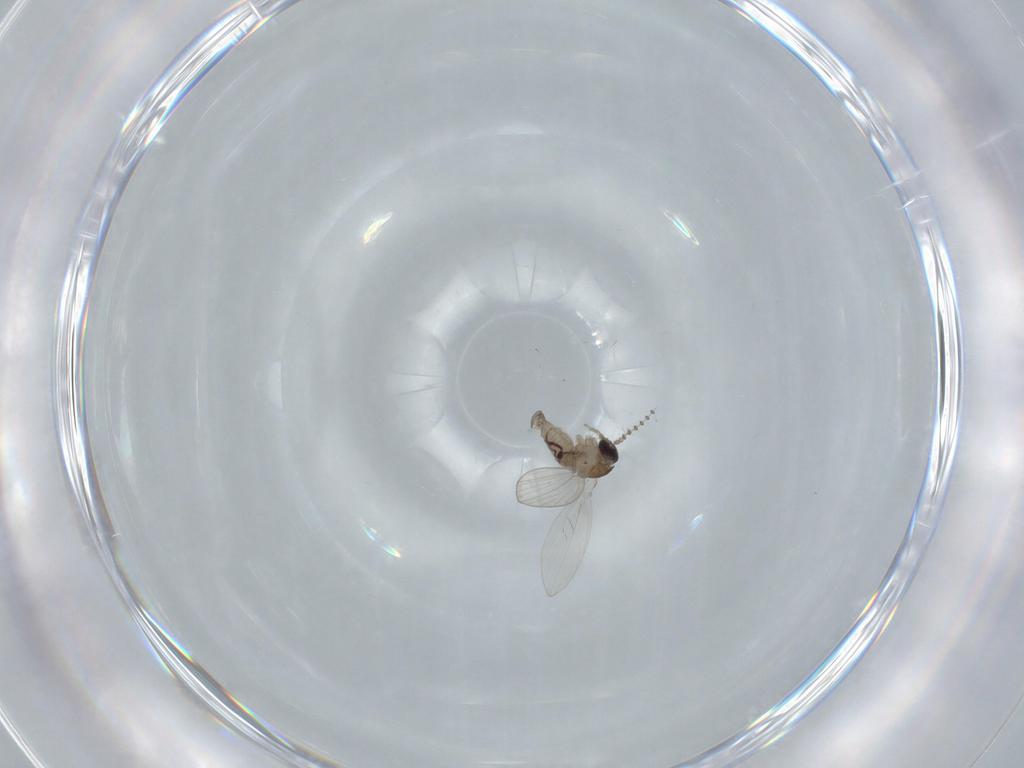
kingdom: Animalia
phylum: Arthropoda
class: Insecta
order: Diptera
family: Psychodidae
